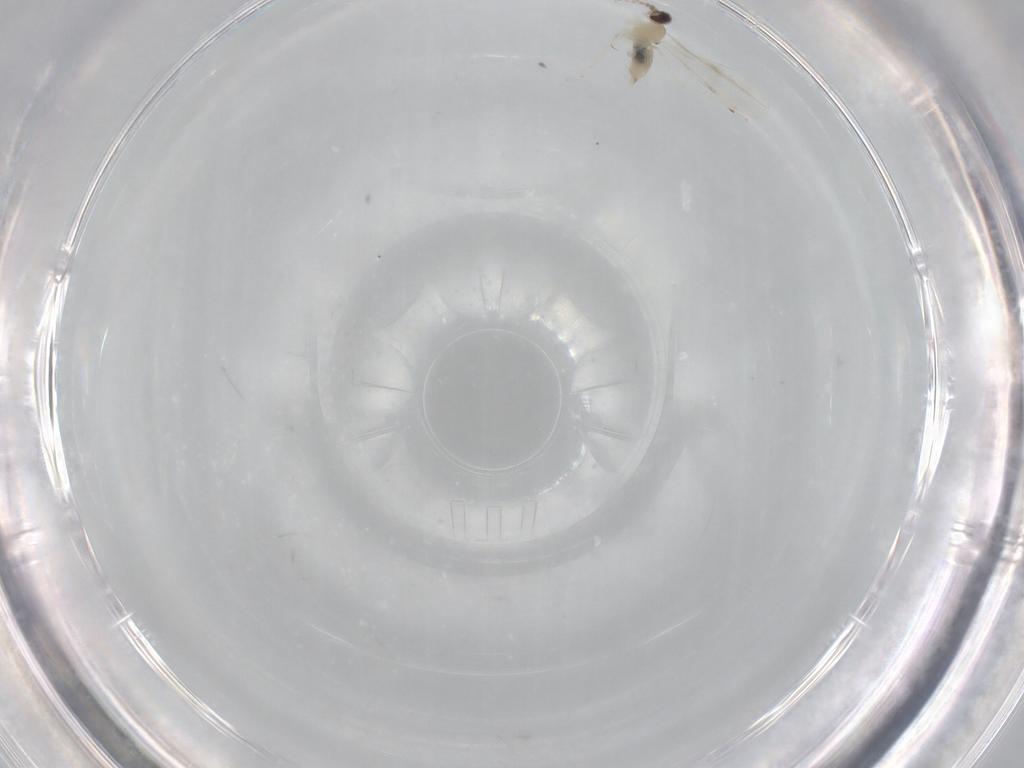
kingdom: Animalia
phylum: Arthropoda
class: Insecta
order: Diptera
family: Cecidomyiidae
